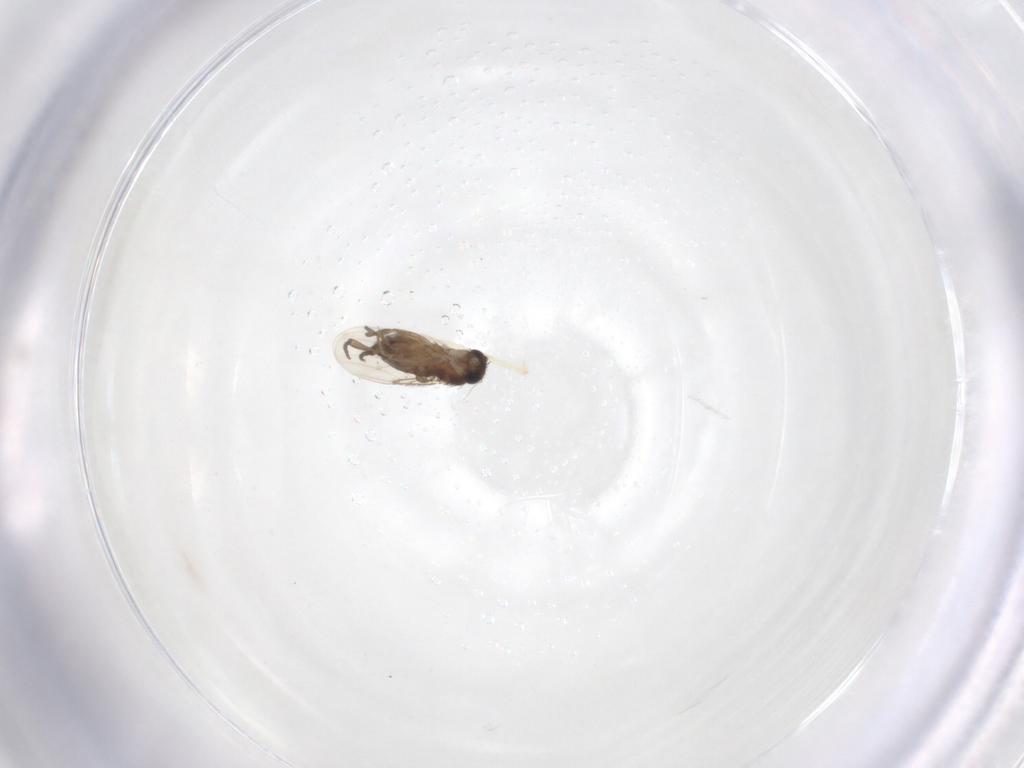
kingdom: Animalia
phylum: Arthropoda
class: Insecta
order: Diptera
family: Phoridae
